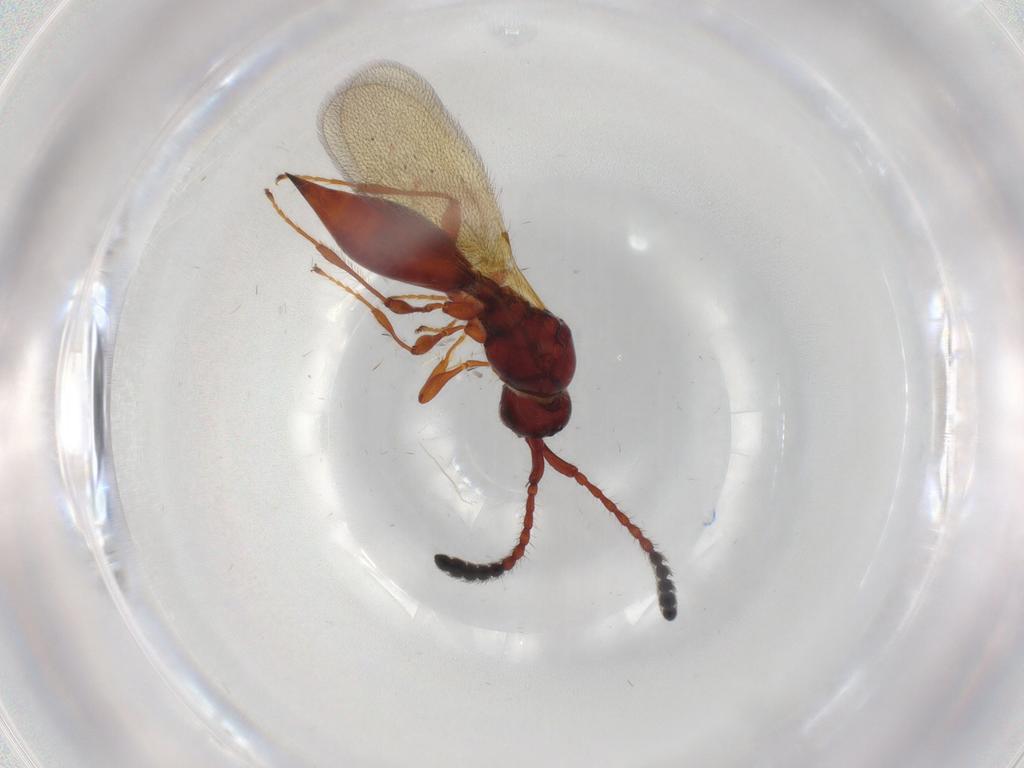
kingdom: Animalia
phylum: Arthropoda
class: Insecta
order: Hymenoptera
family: Diapriidae
